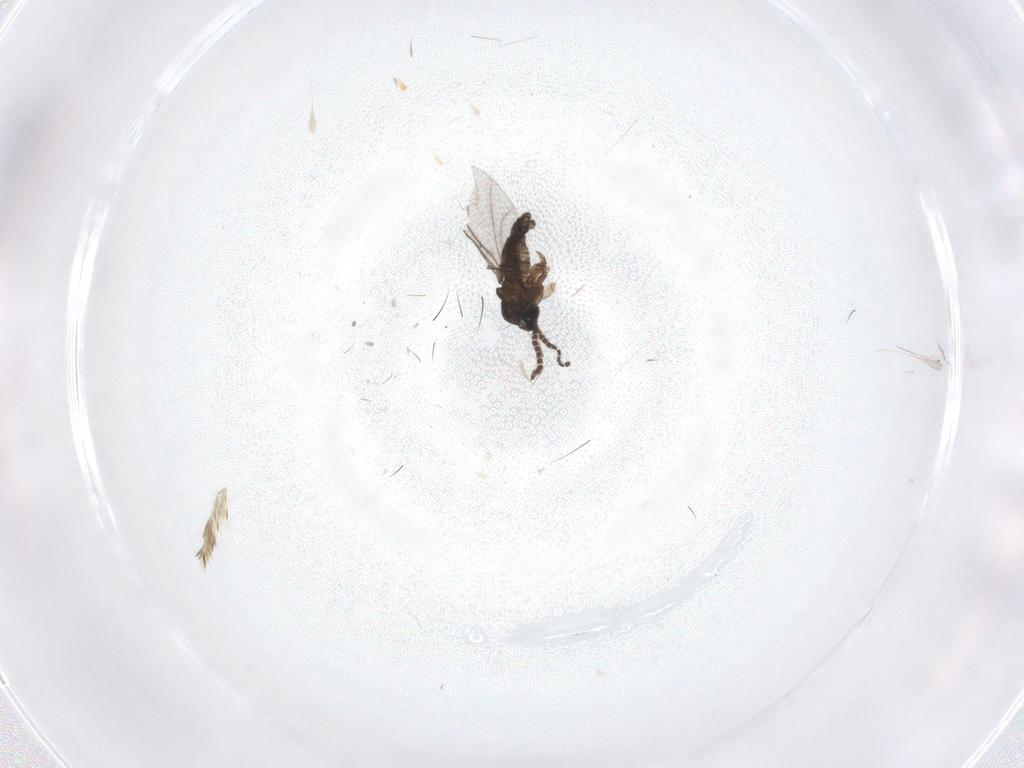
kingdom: Animalia
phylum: Arthropoda
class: Insecta
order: Diptera
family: Sciaridae
